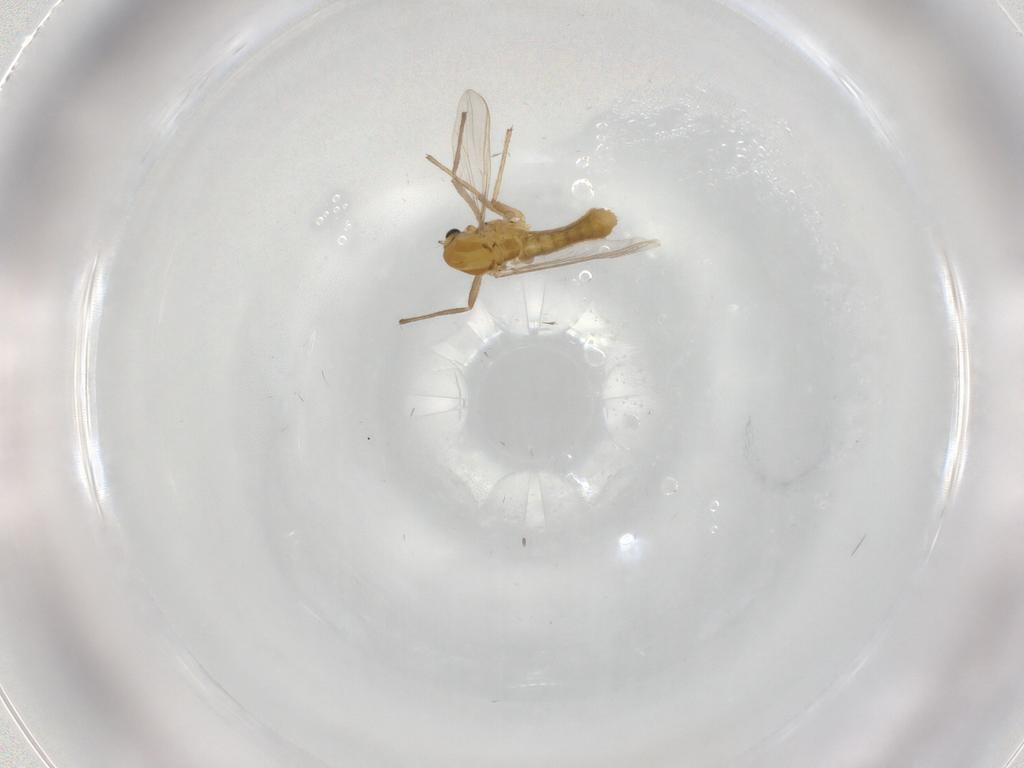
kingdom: Animalia
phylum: Arthropoda
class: Insecta
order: Diptera
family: Chironomidae
